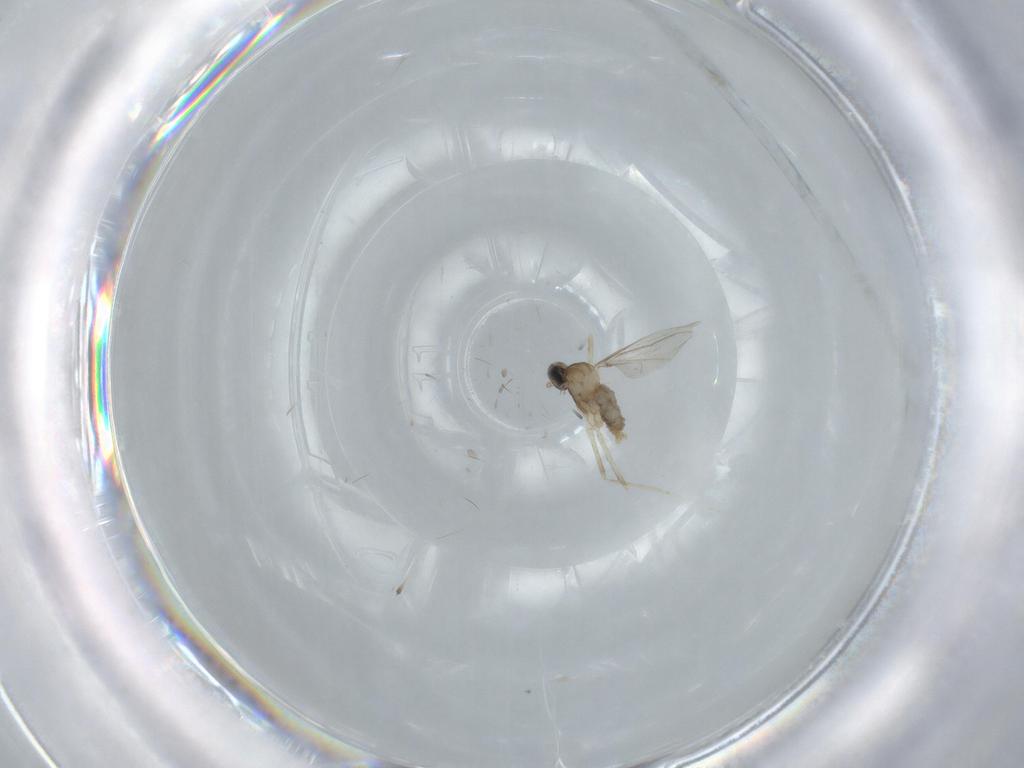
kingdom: Animalia
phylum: Arthropoda
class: Insecta
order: Diptera
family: Cecidomyiidae
